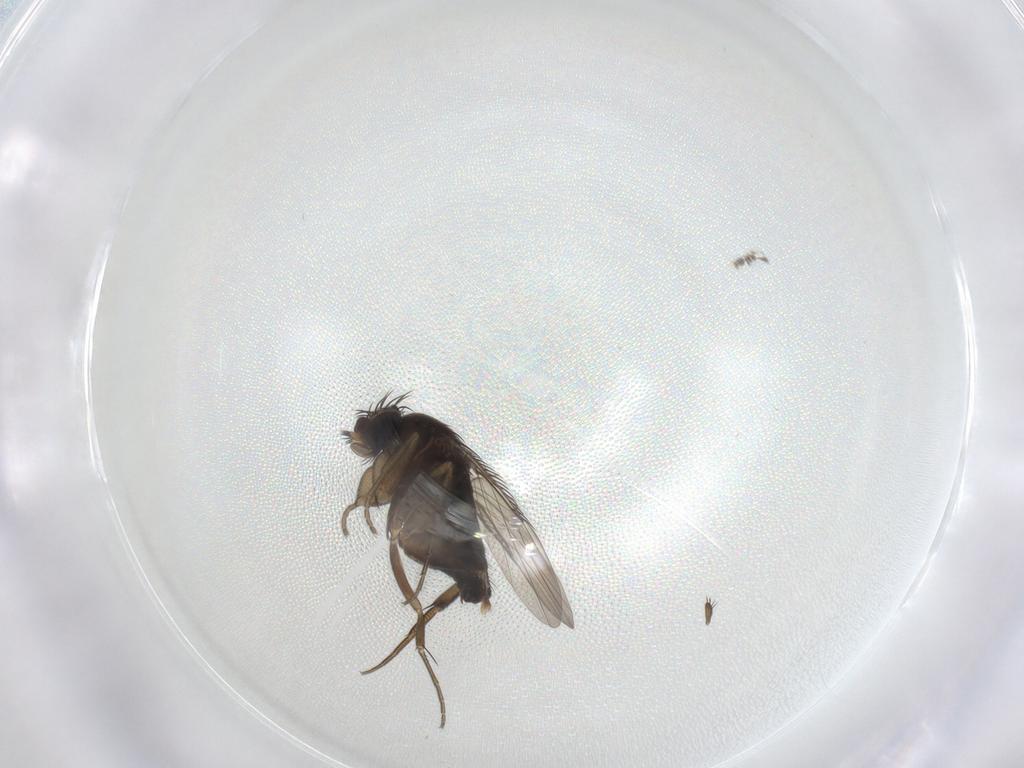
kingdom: Animalia
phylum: Arthropoda
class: Insecta
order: Diptera
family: Phoridae
